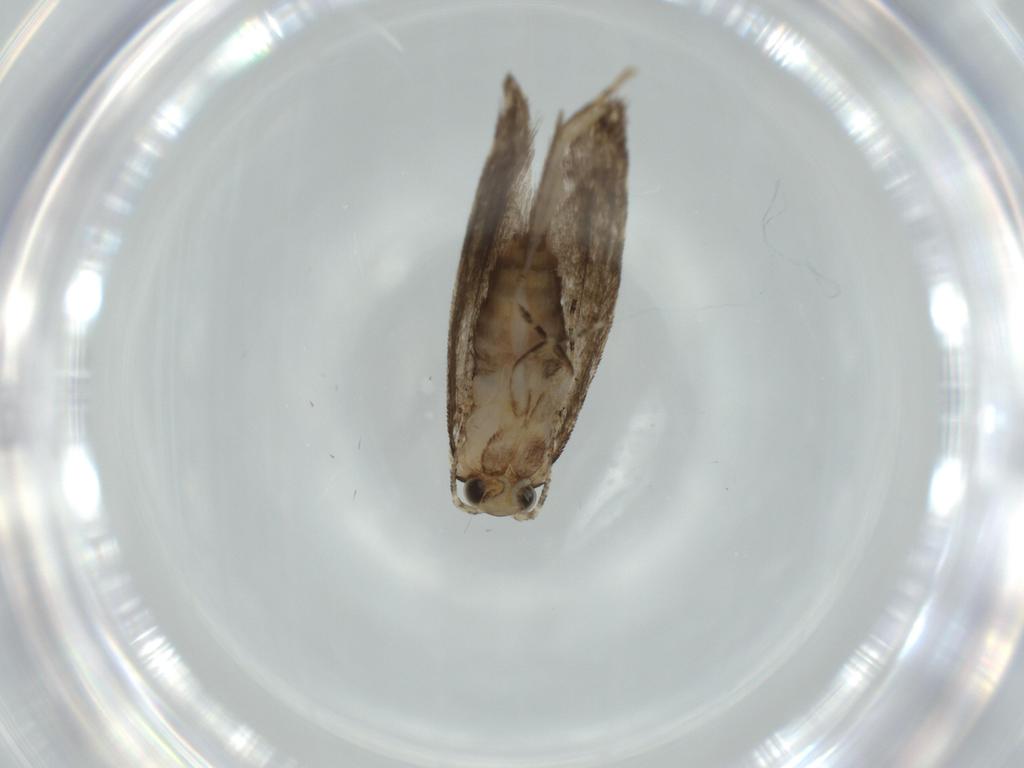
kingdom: Animalia
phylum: Arthropoda
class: Insecta
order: Lepidoptera
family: Tineidae
